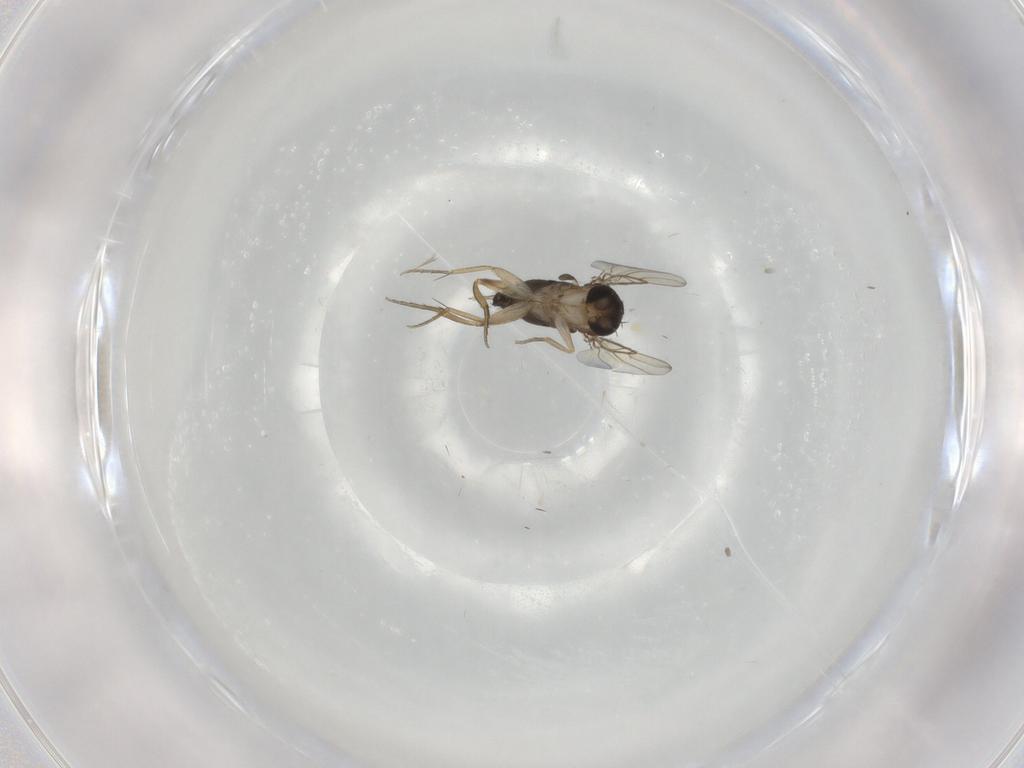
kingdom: Animalia
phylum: Arthropoda
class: Insecta
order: Diptera
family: Phoridae
